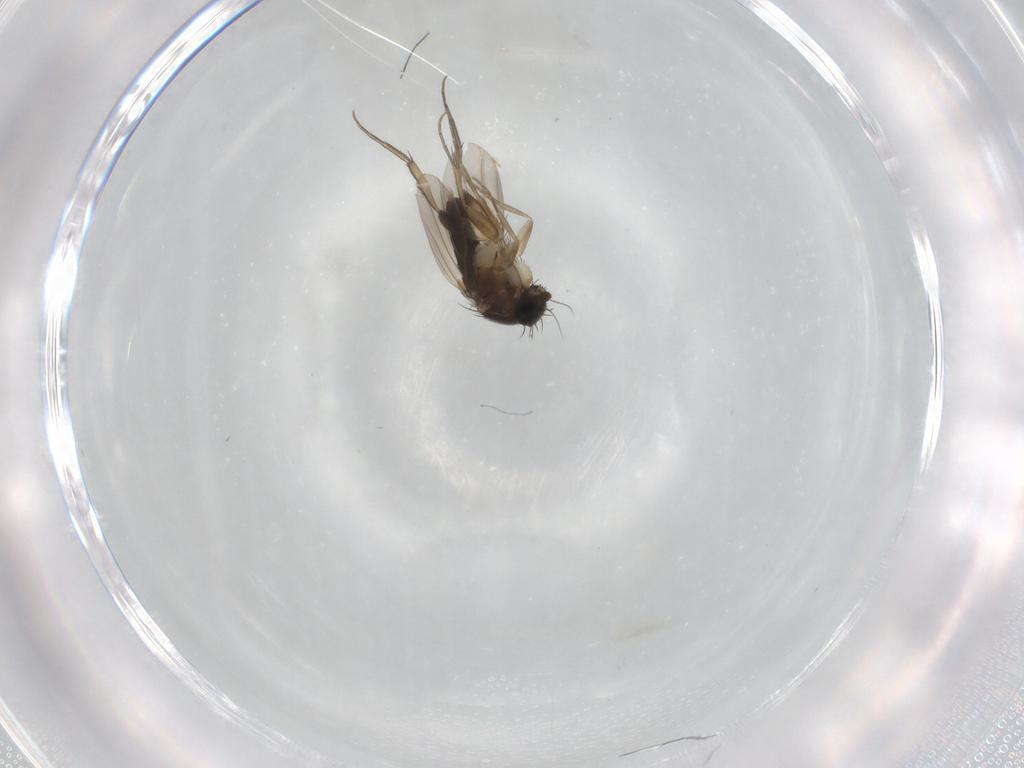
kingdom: Animalia
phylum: Arthropoda
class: Insecta
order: Diptera
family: Phoridae
